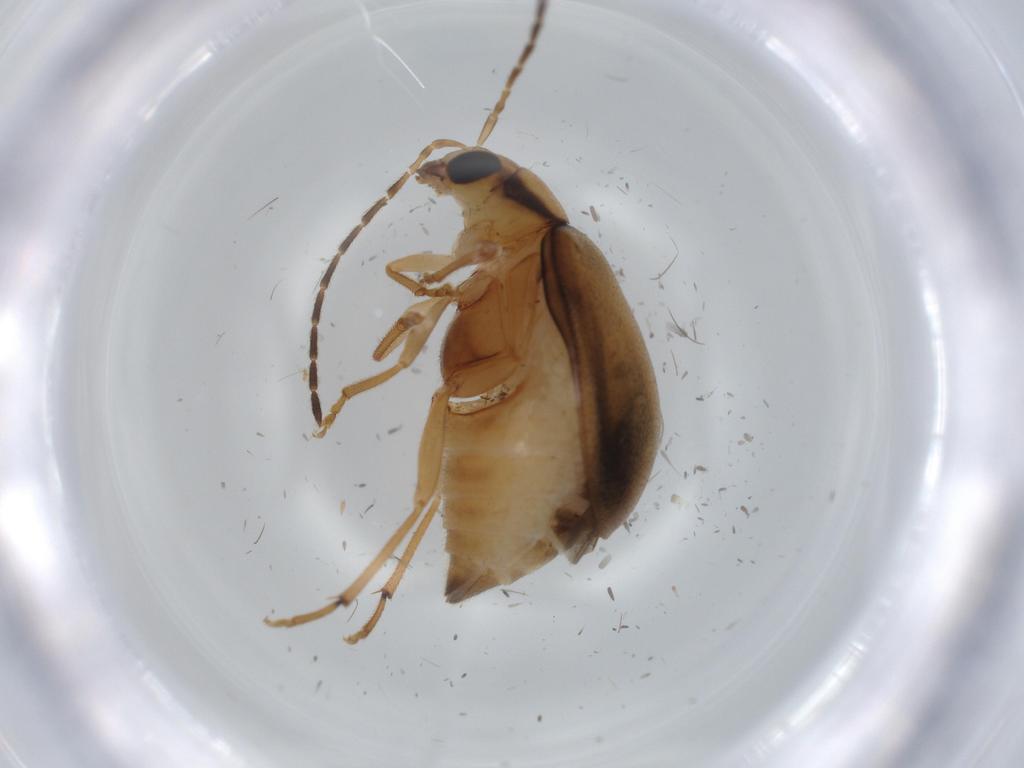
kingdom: Animalia
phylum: Arthropoda
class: Insecta
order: Coleoptera
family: Chrysomelidae
